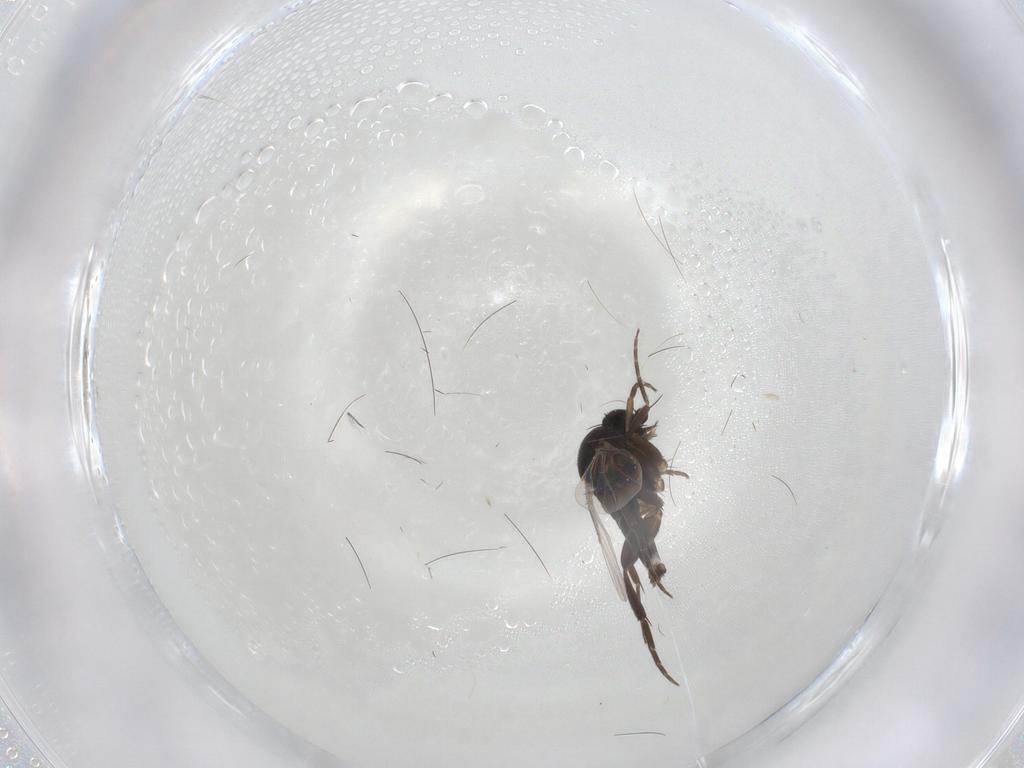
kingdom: Animalia
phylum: Arthropoda
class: Insecta
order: Diptera
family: Phoridae
